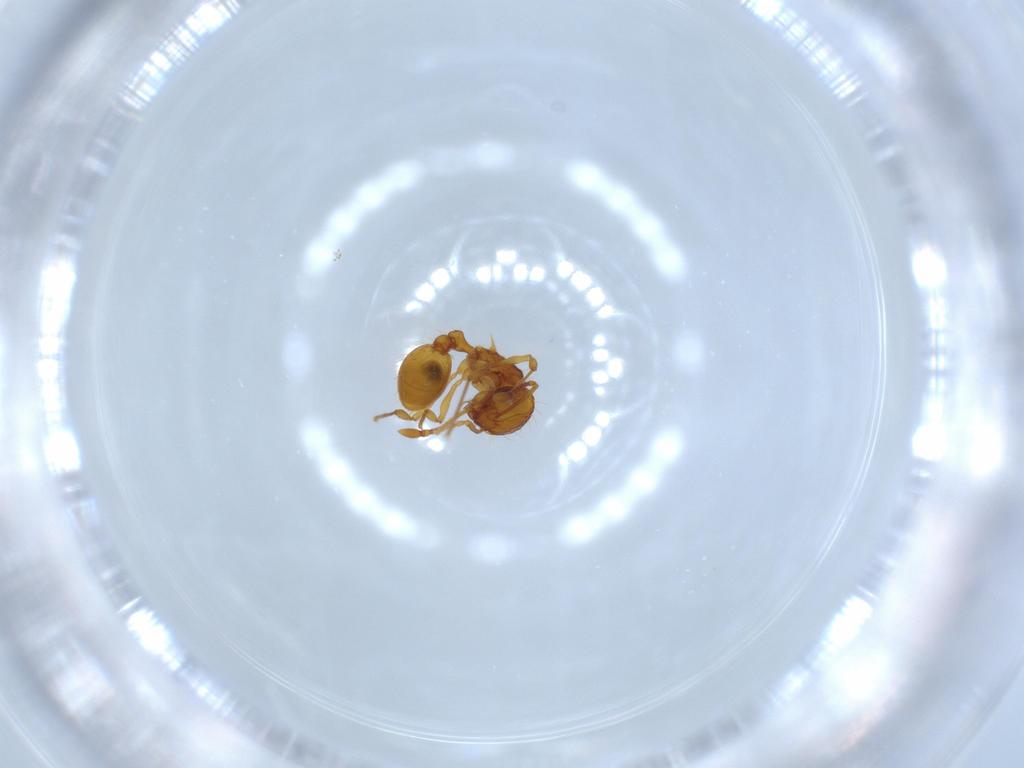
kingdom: Animalia
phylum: Arthropoda
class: Insecta
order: Hymenoptera
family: Formicidae
